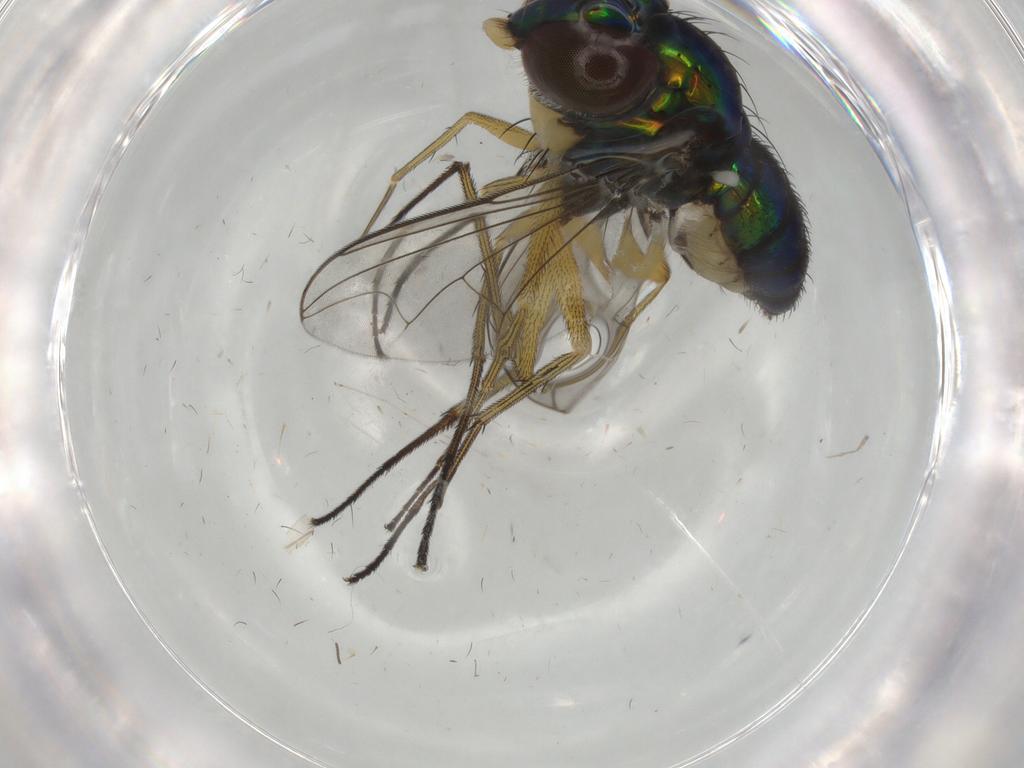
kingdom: Animalia
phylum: Arthropoda
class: Insecta
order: Diptera
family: Dolichopodidae
